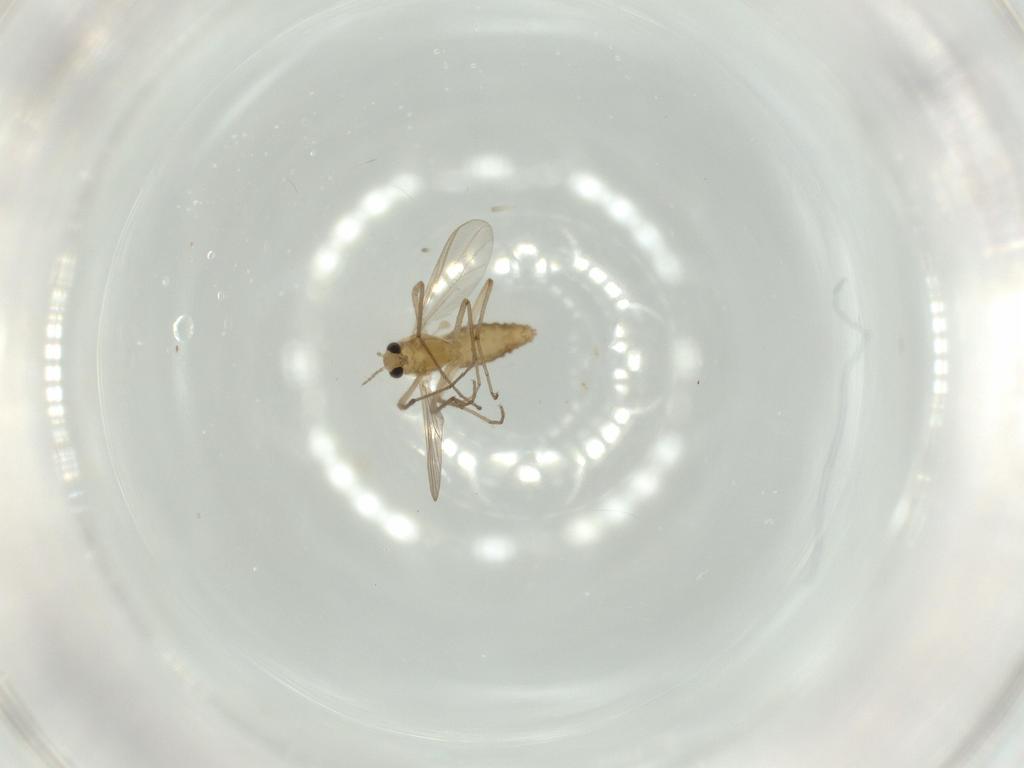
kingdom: Animalia
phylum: Arthropoda
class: Insecta
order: Diptera
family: Chironomidae
